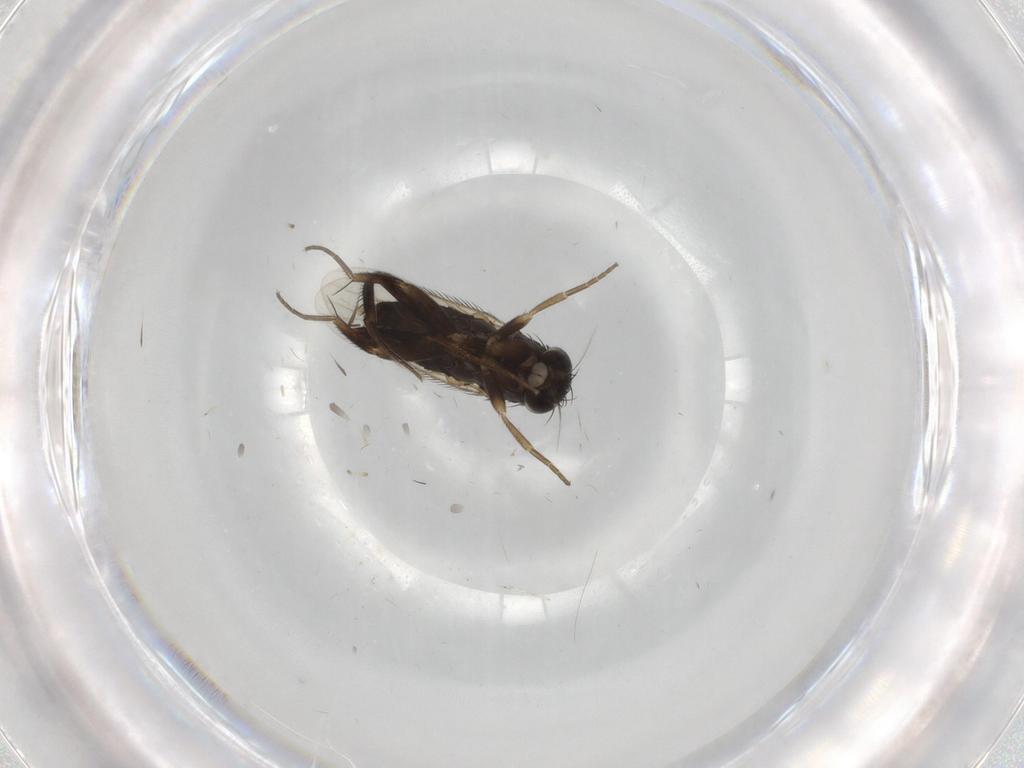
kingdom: Animalia
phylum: Arthropoda
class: Insecta
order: Diptera
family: Phoridae
